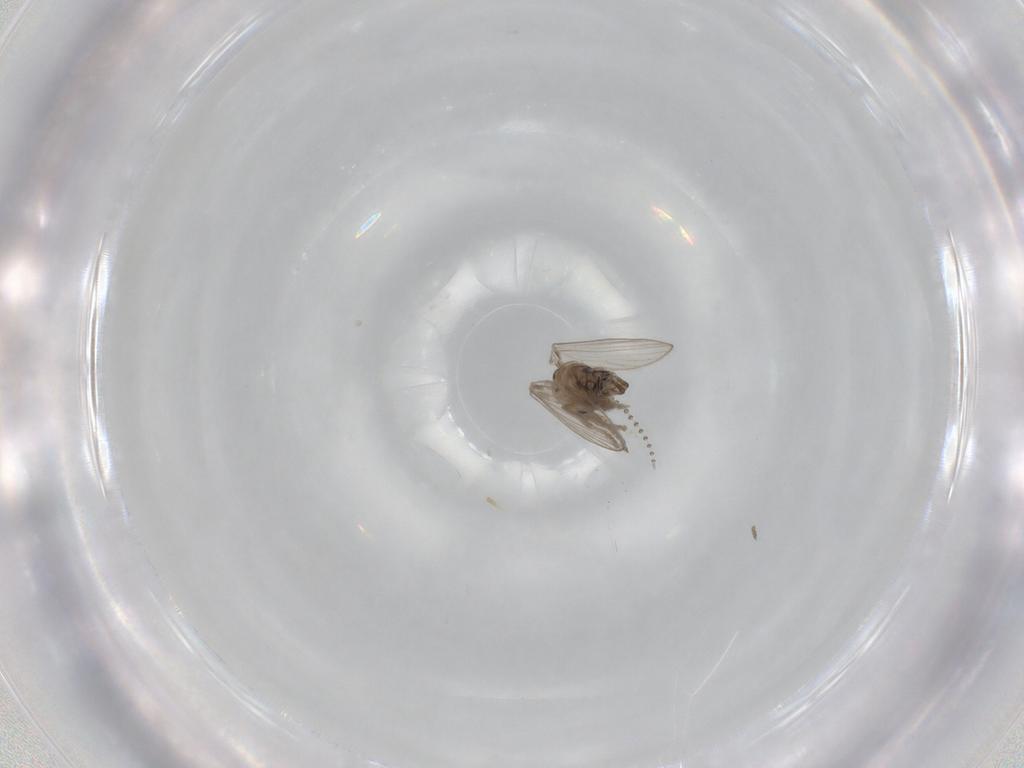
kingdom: Animalia
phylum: Arthropoda
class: Insecta
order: Diptera
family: Psychodidae
